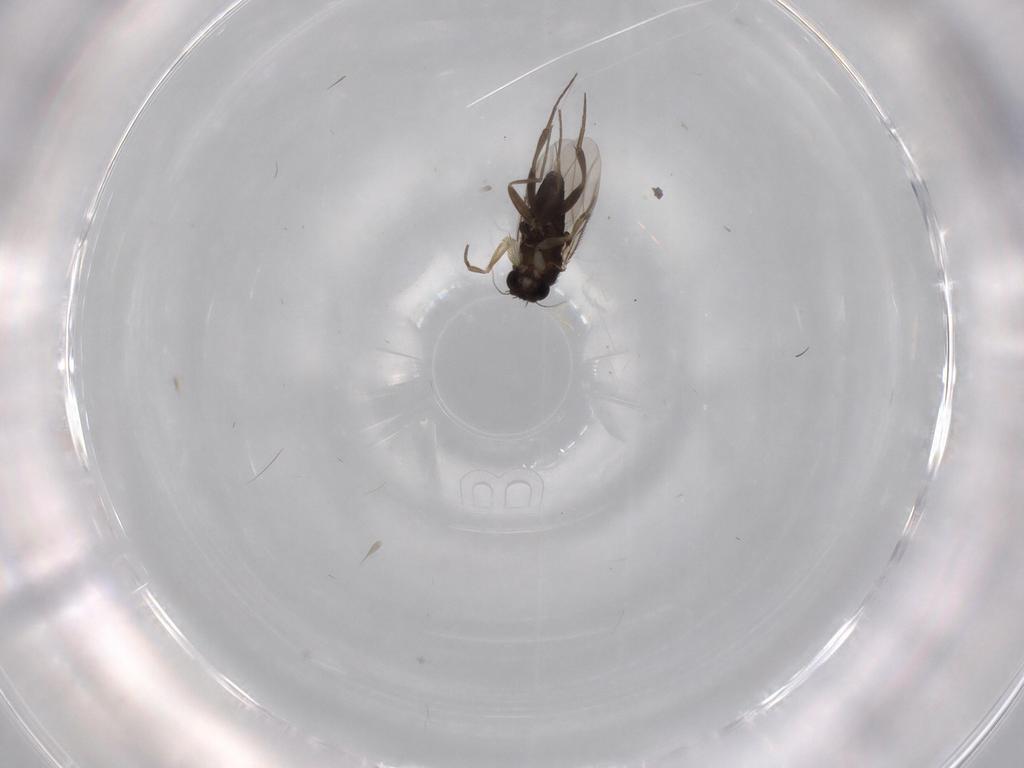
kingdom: Animalia
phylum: Arthropoda
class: Insecta
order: Diptera
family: Phoridae
